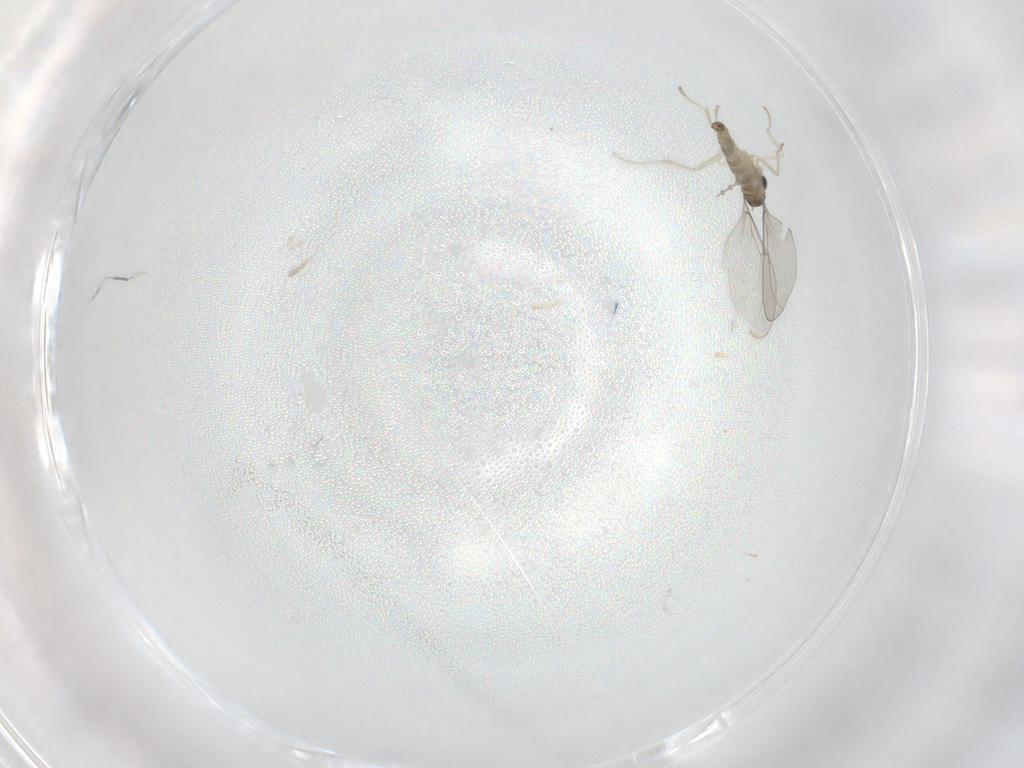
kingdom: Animalia
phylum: Arthropoda
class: Insecta
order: Diptera
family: Cecidomyiidae
